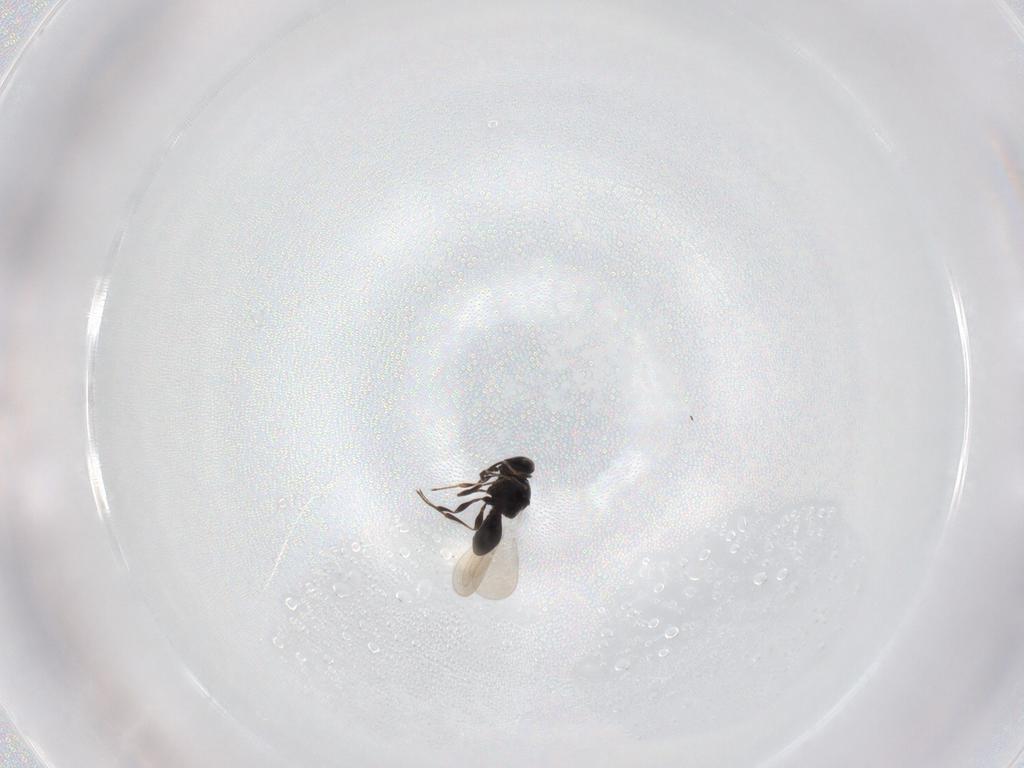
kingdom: Animalia
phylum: Arthropoda
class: Insecta
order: Hymenoptera
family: Platygastridae
